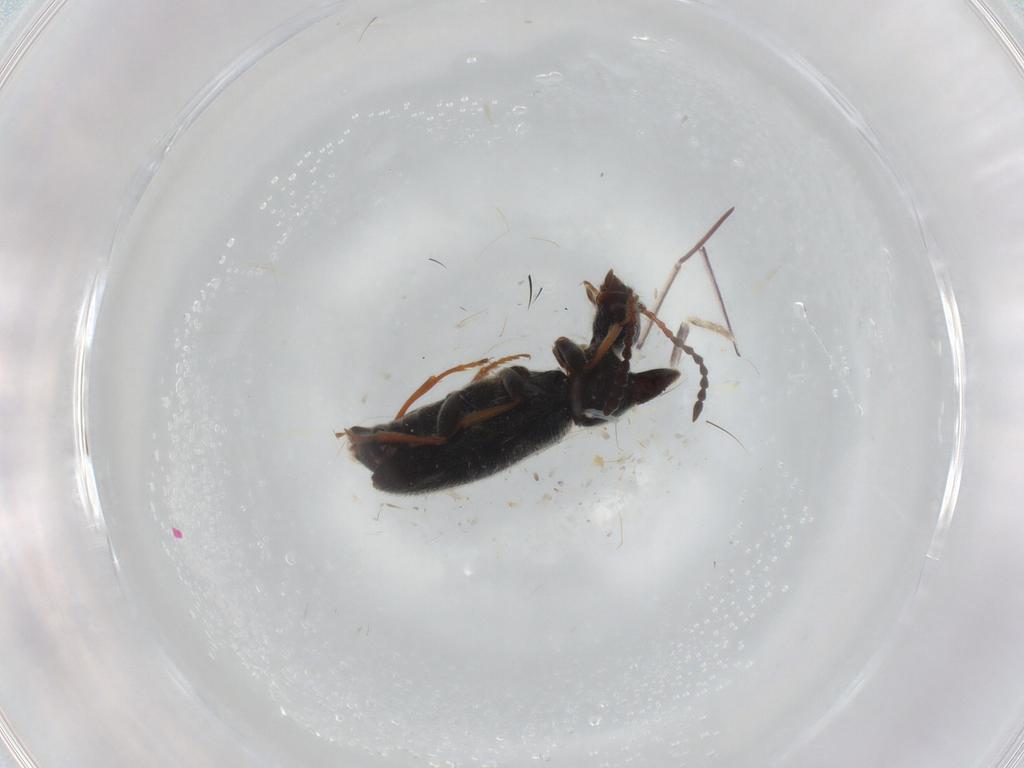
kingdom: Animalia
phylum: Arthropoda
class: Insecta
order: Coleoptera
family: Anthicidae
